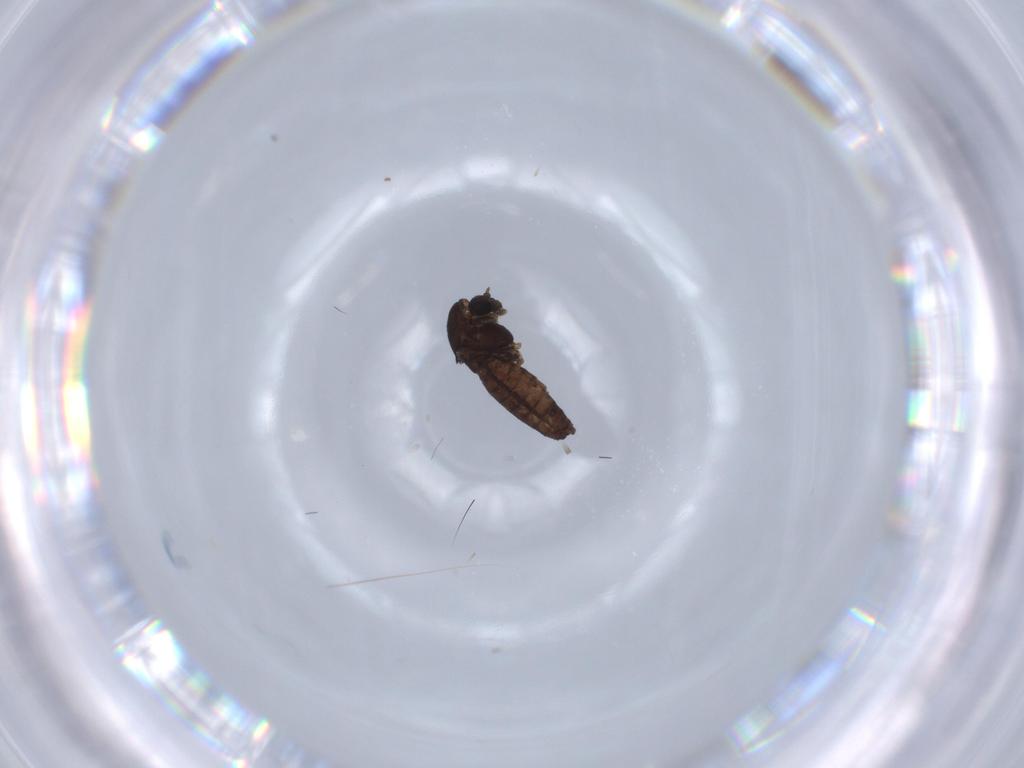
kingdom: Animalia
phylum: Arthropoda
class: Insecta
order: Diptera
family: Chironomidae
